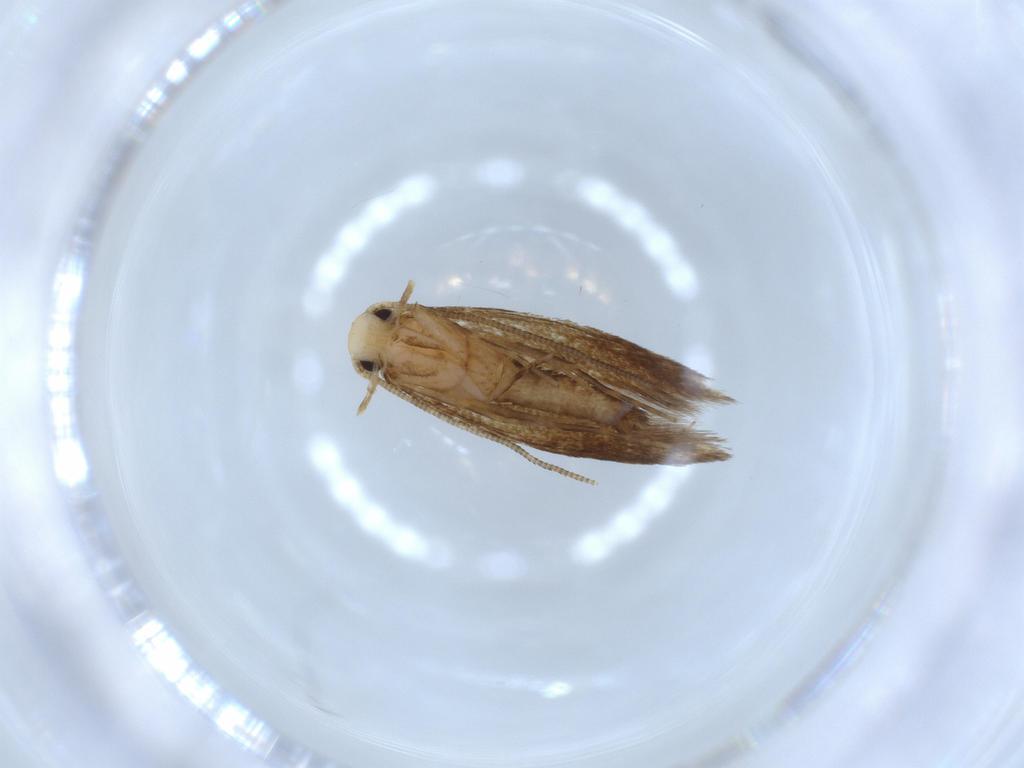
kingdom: Animalia
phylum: Arthropoda
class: Insecta
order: Lepidoptera
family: Tineidae
